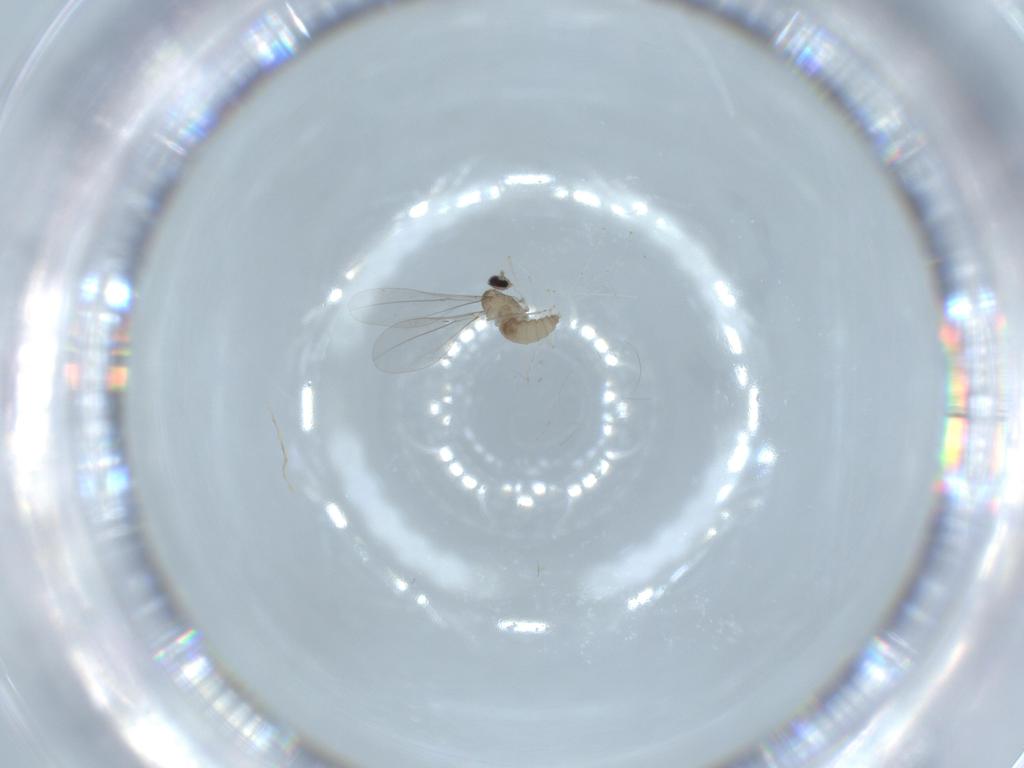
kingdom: Animalia
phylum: Arthropoda
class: Insecta
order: Diptera
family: Cecidomyiidae
